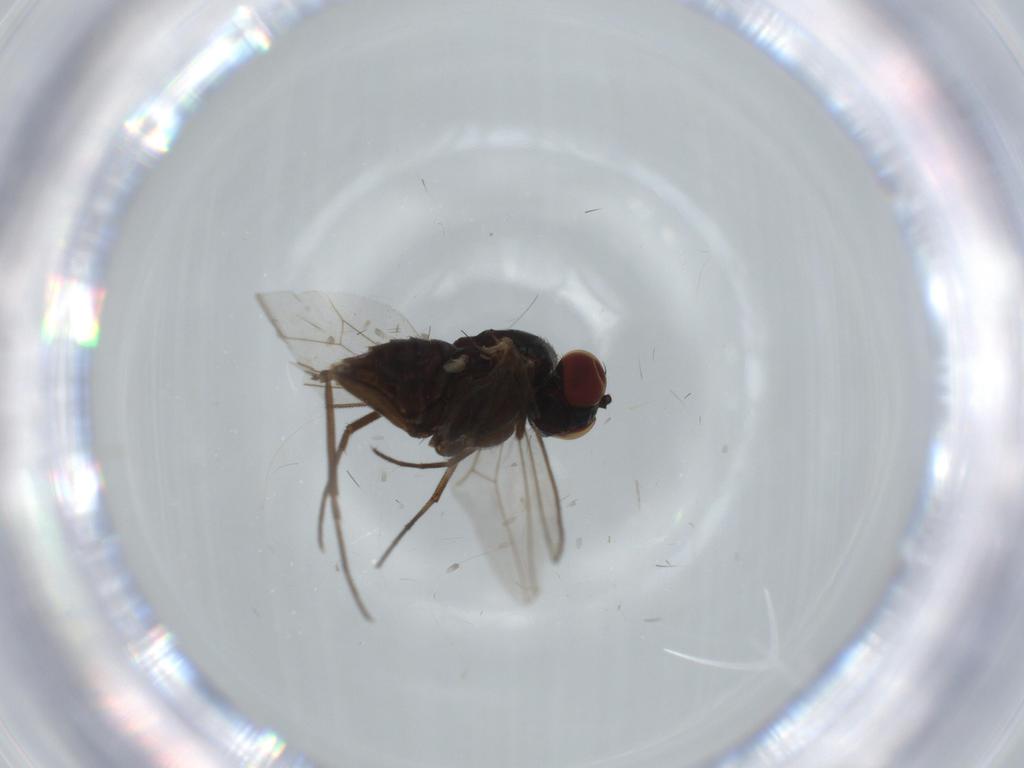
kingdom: Animalia
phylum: Arthropoda
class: Insecta
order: Diptera
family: Dolichopodidae
